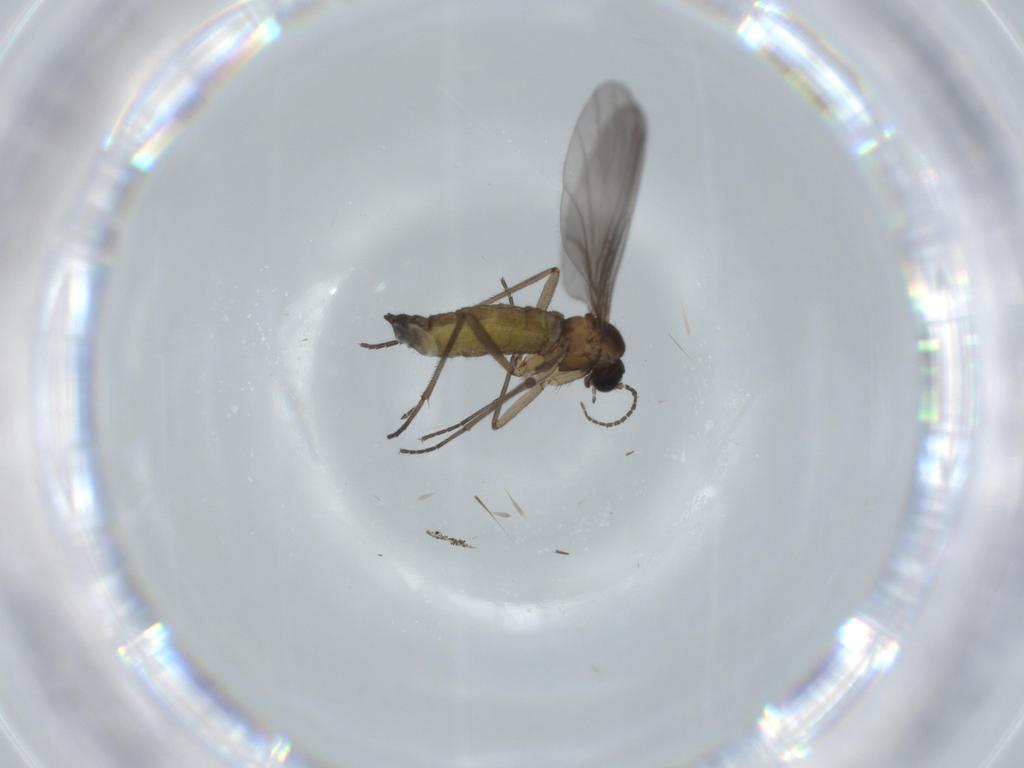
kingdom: Animalia
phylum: Arthropoda
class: Insecta
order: Diptera
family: Sciaridae
